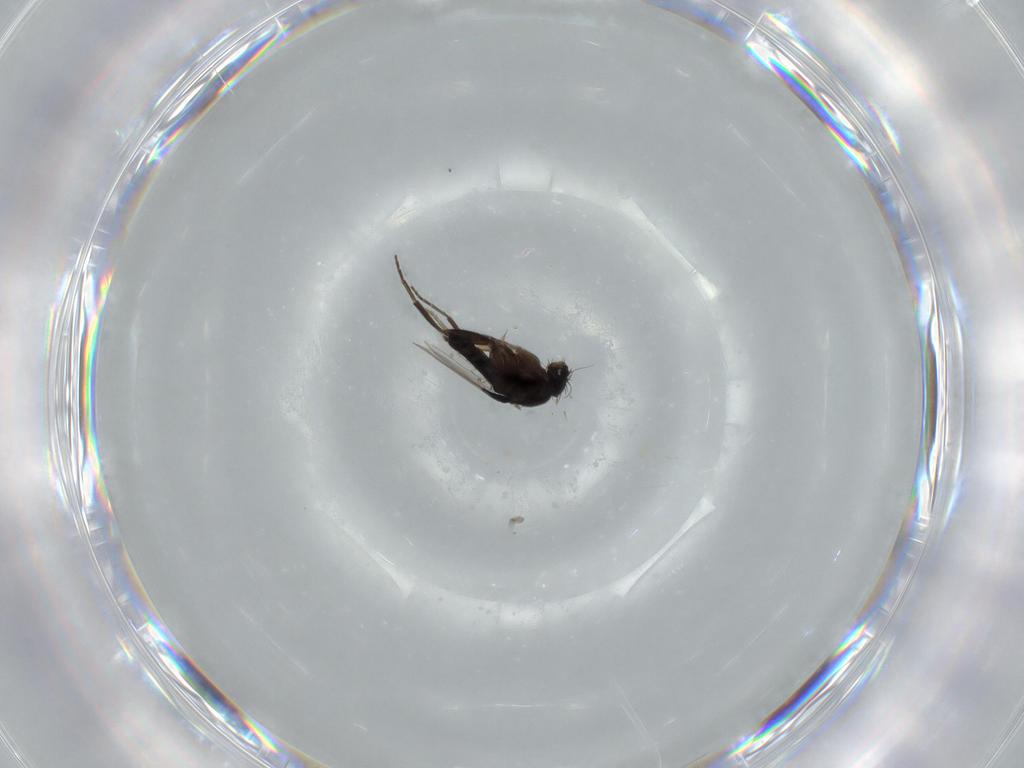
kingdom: Animalia
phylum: Arthropoda
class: Insecta
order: Diptera
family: Phoridae
